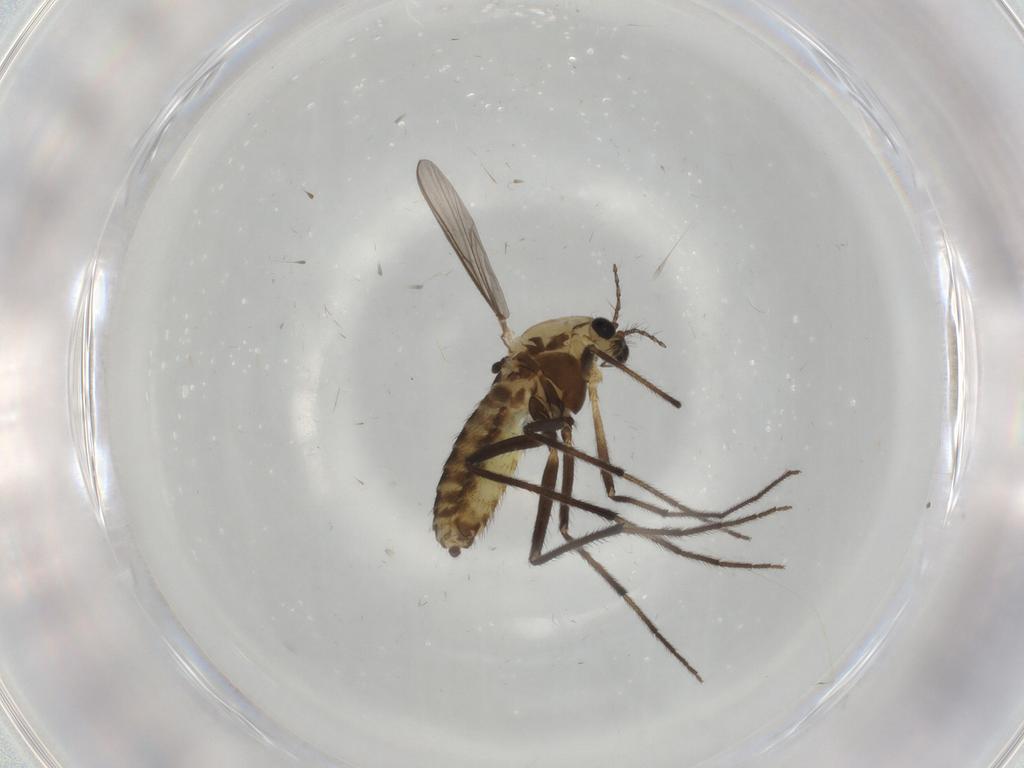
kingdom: Animalia
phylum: Arthropoda
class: Insecta
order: Diptera
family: Chironomidae
